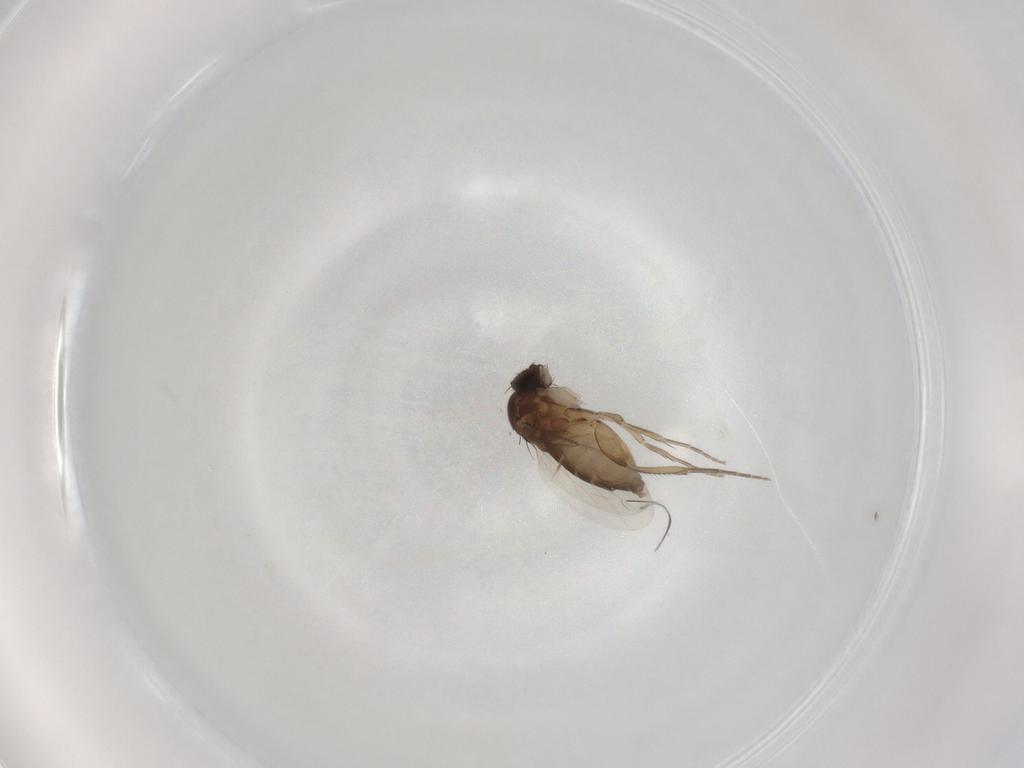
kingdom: Animalia
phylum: Arthropoda
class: Insecta
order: Diptera
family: Phoridae
